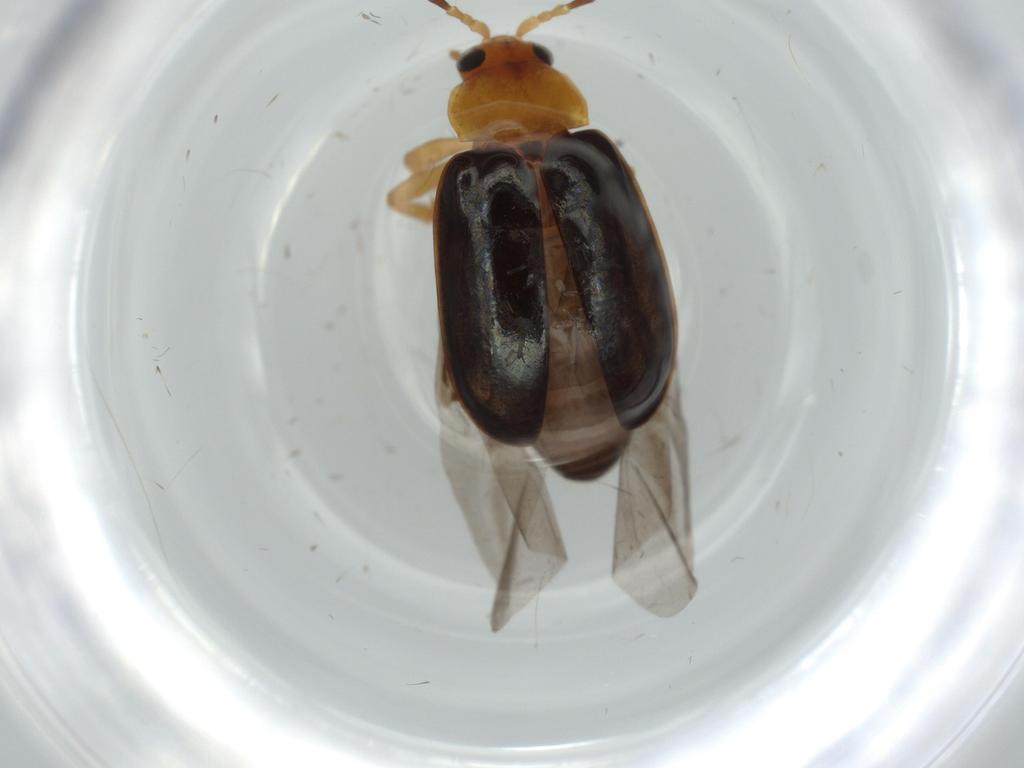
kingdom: Animalia
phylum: Arthropoda
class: Insecta
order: Coleoptera
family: Chrysomelidae
